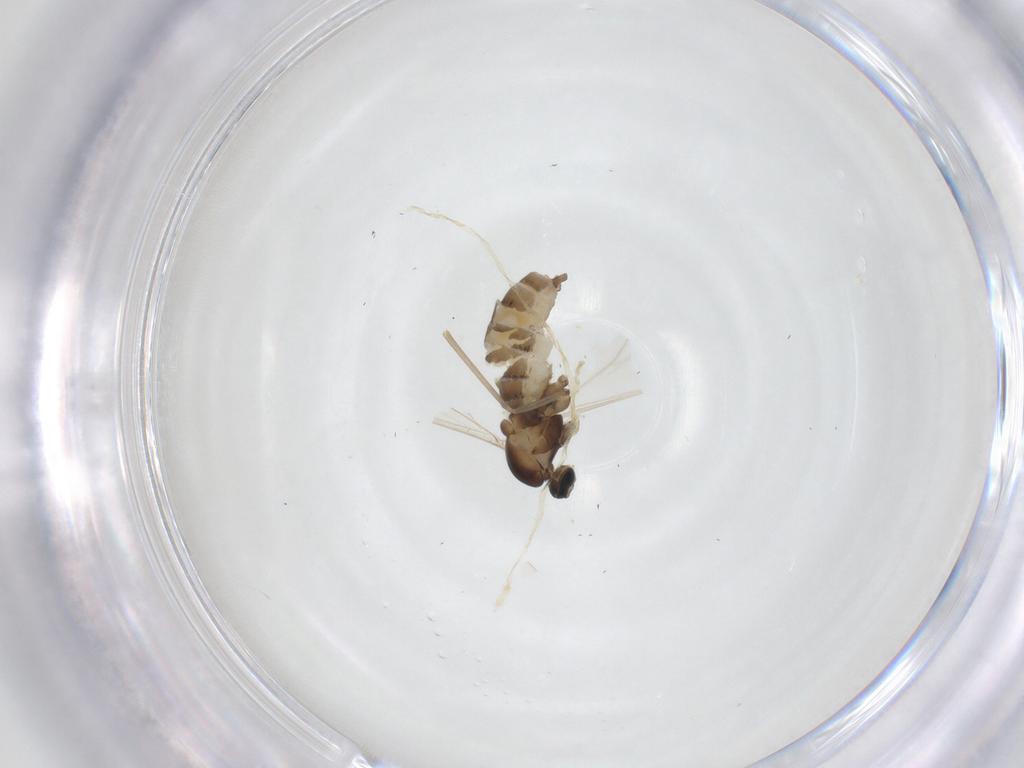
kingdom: Animalia
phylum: Arthropoda
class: Insecta
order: Diptera
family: Cecidomyiidae
